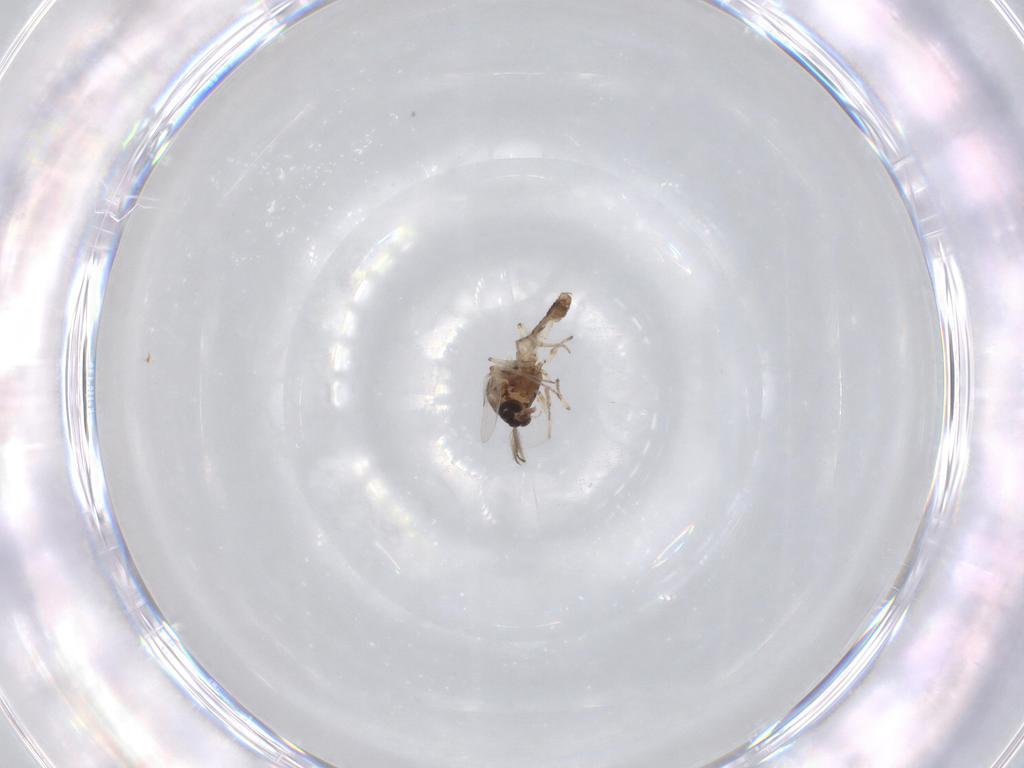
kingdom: Animalia
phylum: Arthropoda
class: Insecta
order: Diptera
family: Ceratopogonidae
